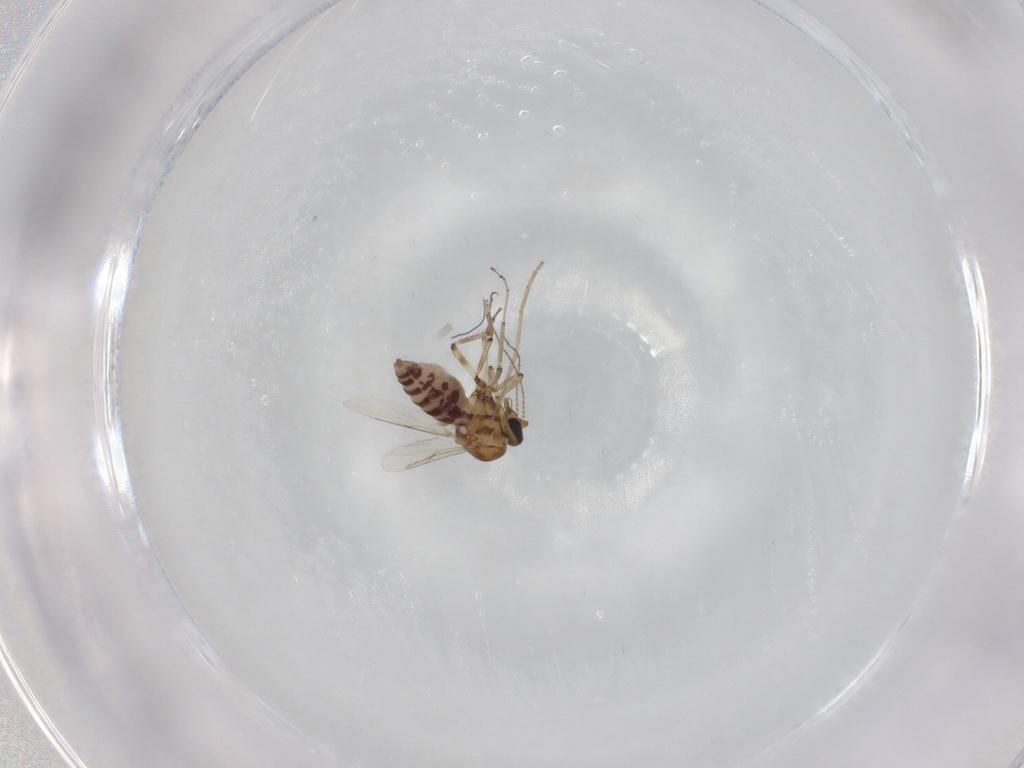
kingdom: Animalia
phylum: Arthropoda
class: Insecta
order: Diptera
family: Ceratopogonidae
